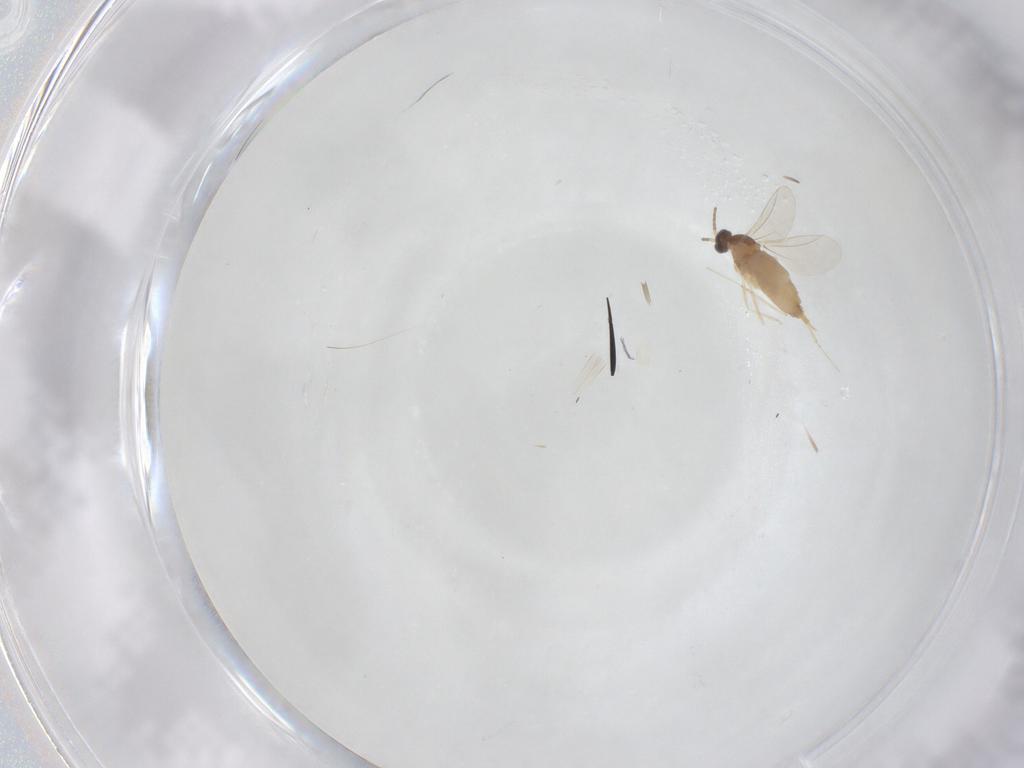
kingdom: Animalia
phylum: Arthropoda
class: Insecta
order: Diptera
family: Cecidomyiidae
